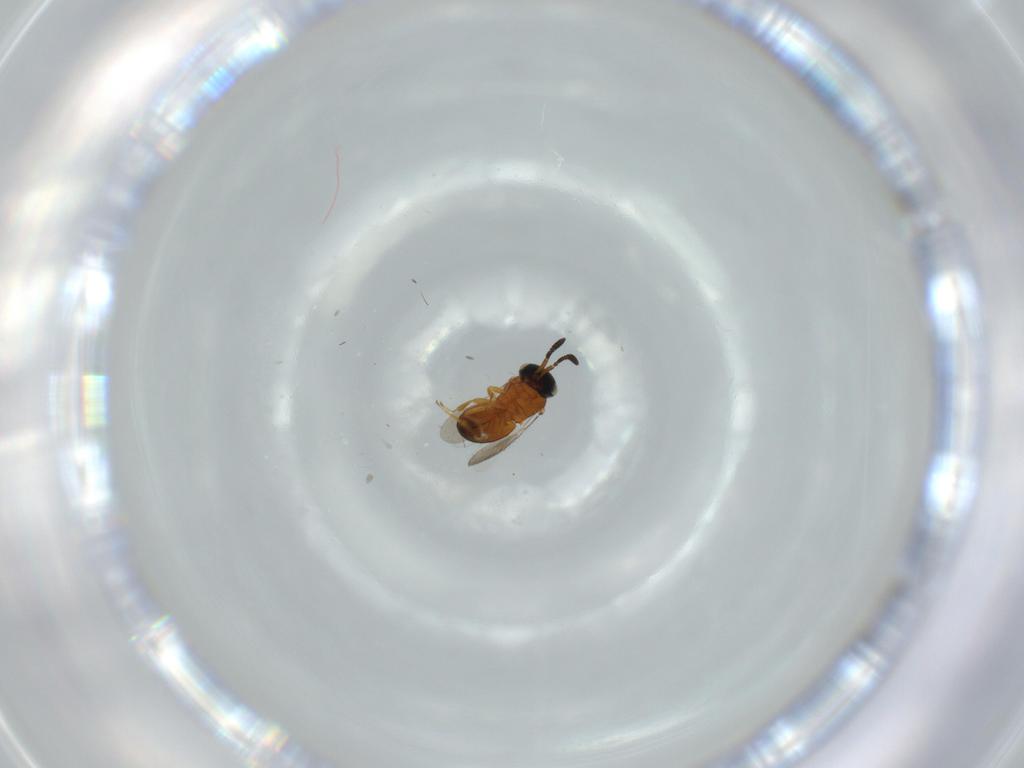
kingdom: Animalia
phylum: Arthropoda
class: Insecta
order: Hymenoptera
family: Scelionidae
